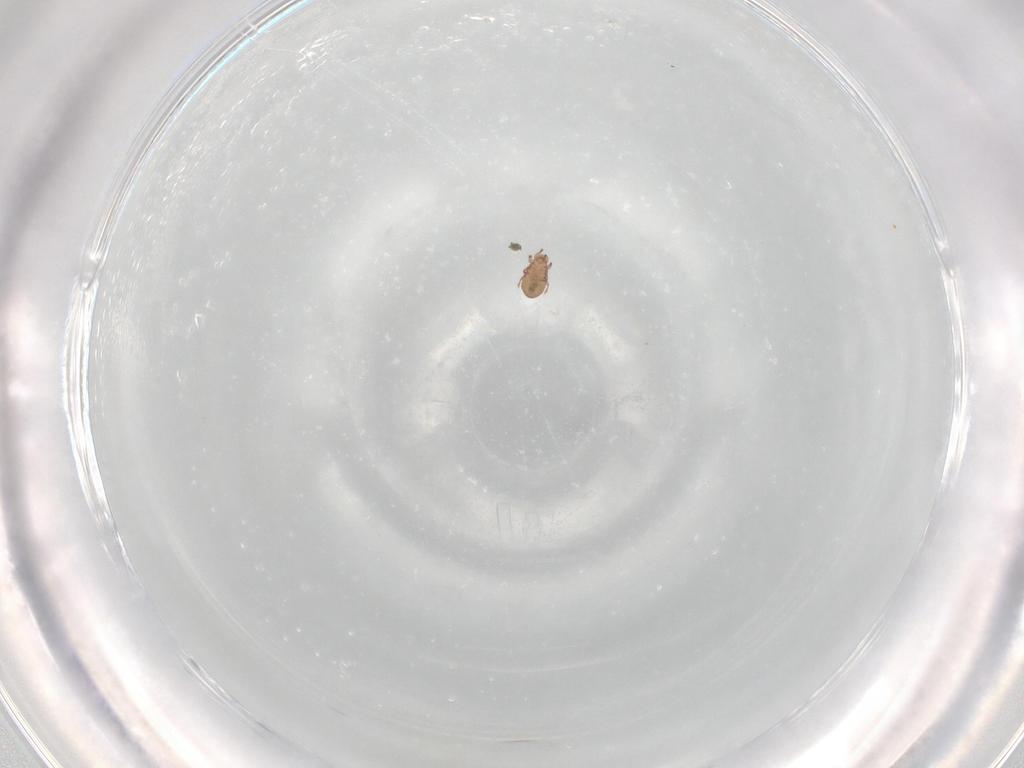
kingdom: Animalia
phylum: Arthropoda
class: Arachnida
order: Sarcoptiformes
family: Eremaeidae
